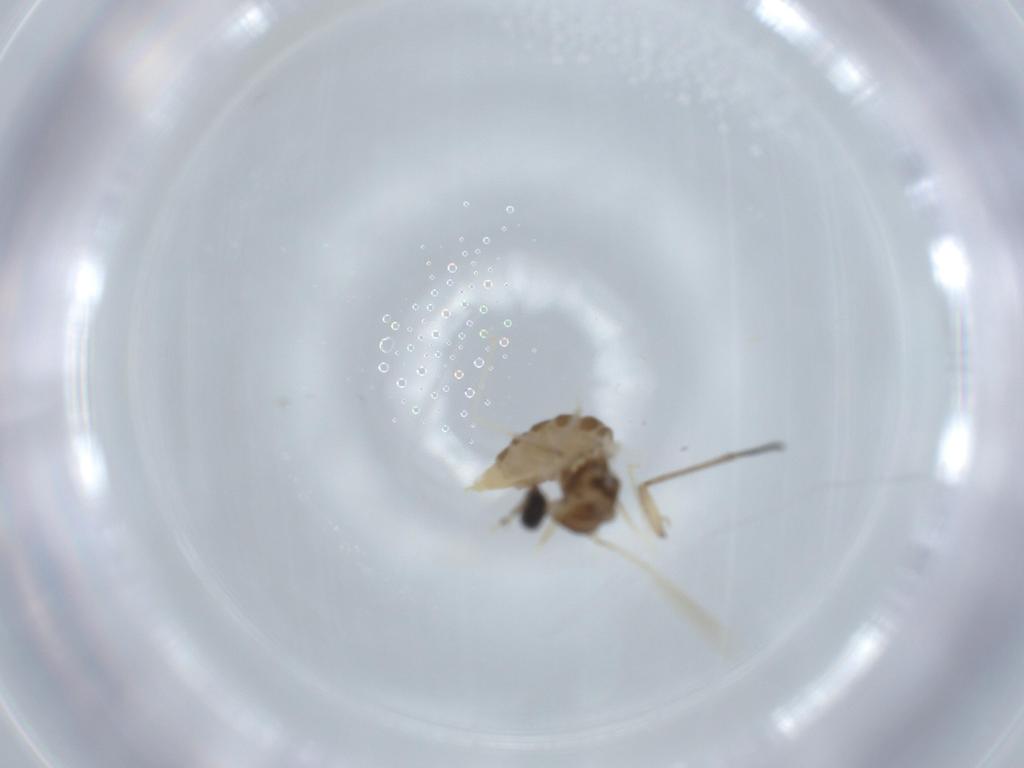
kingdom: Animalia
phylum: Arthropoda
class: Insecta
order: Diptera
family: Cecidomyiidae
